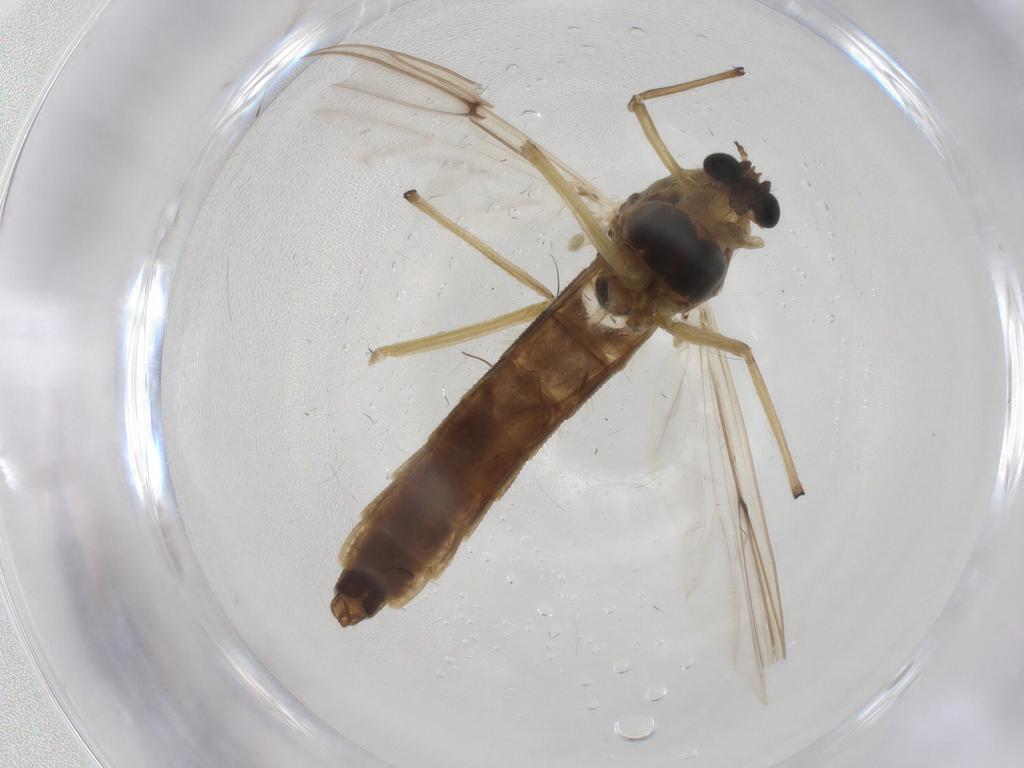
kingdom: Animalia
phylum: Arthropoda
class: Insecta
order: Diptera
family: Chironomidae
